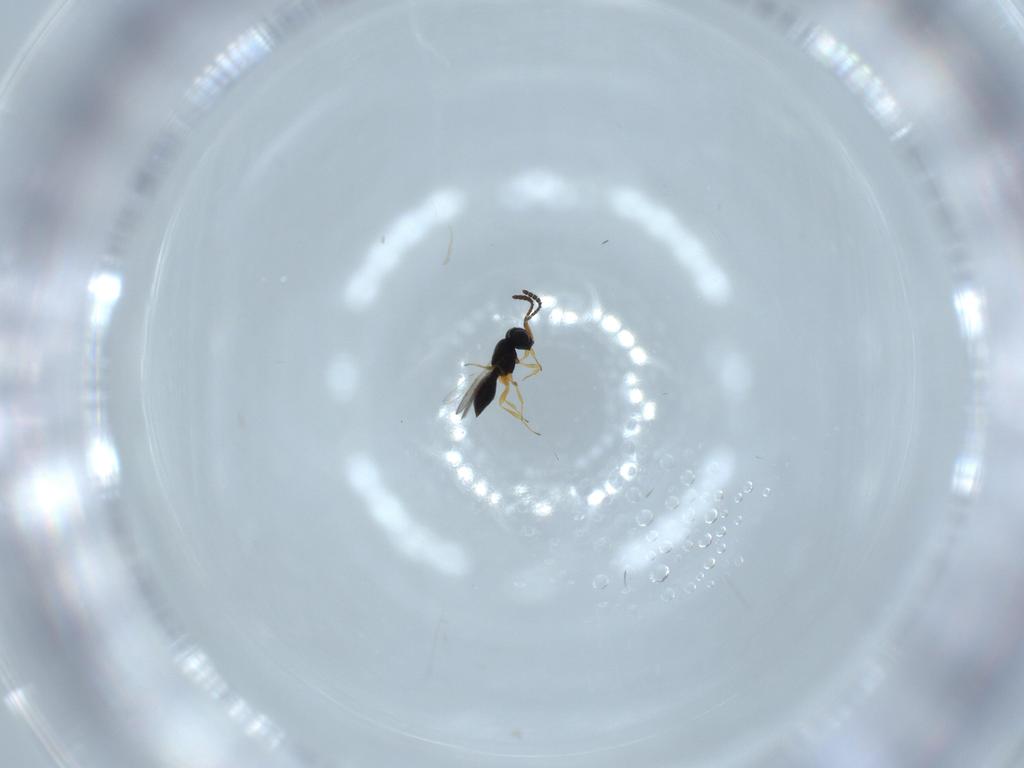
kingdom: Animalia
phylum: Arthropoda
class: Insecta
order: Hymenoptera
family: Scelionidae
